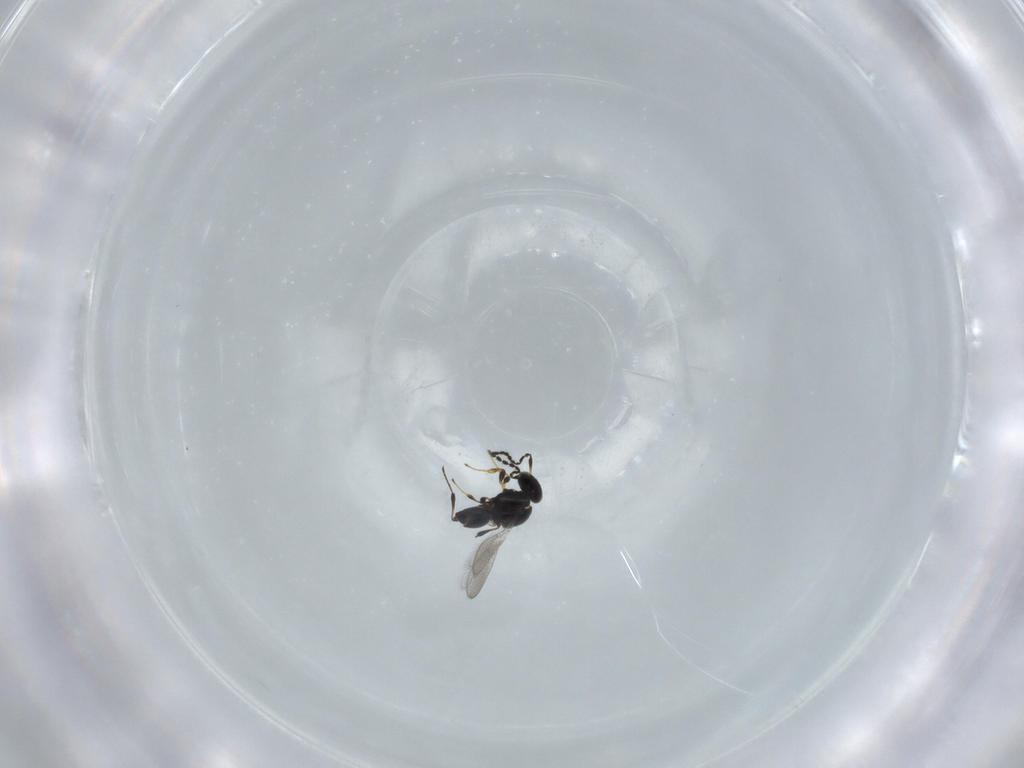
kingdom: Animalia
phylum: Arthropoda
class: Insecta
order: Hymenoptera
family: Platygastridae
